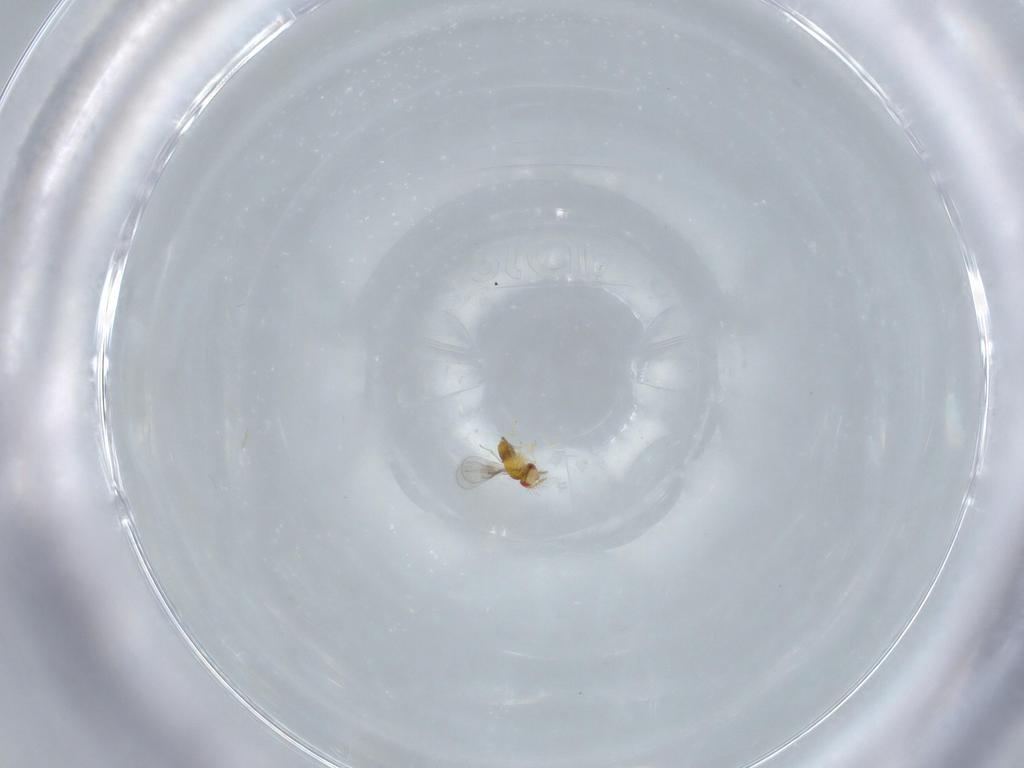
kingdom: Animalia
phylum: Arthropoda
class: Insecta
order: Hymenoptera
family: Trichogrammatidae
